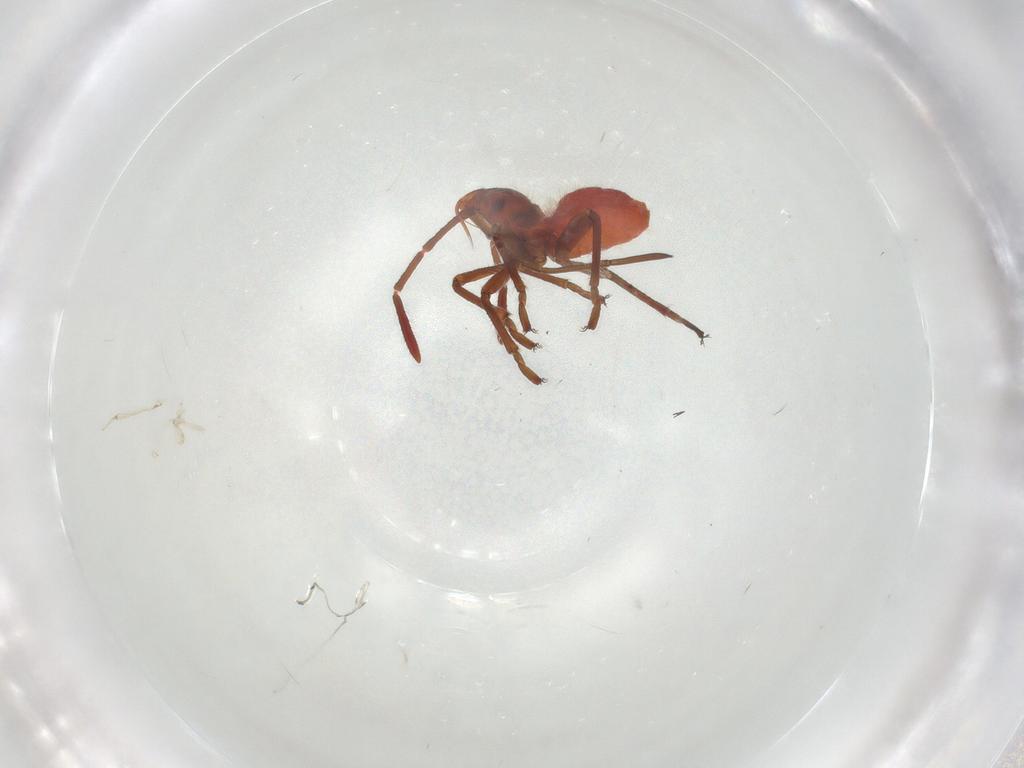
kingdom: Animalia
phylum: Arthropoda
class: Insecta
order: Hemiptera
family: Lygaeidae
